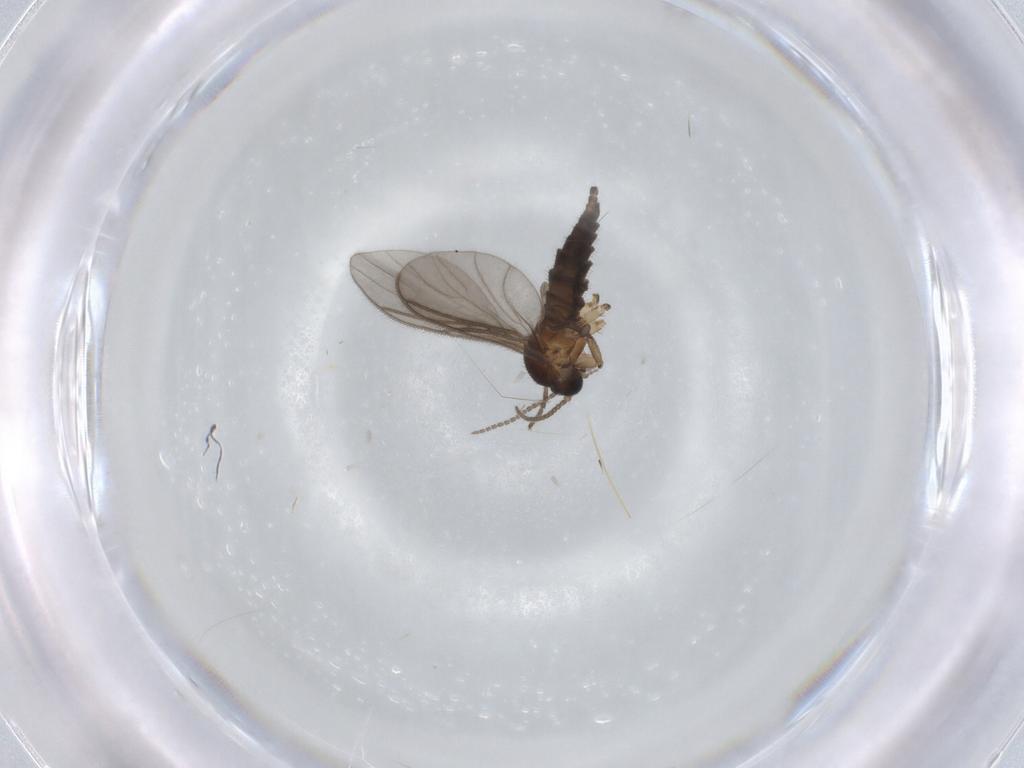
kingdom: Animalia
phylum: Arthropoda
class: Insecta
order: Diptera
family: Sciaridae
